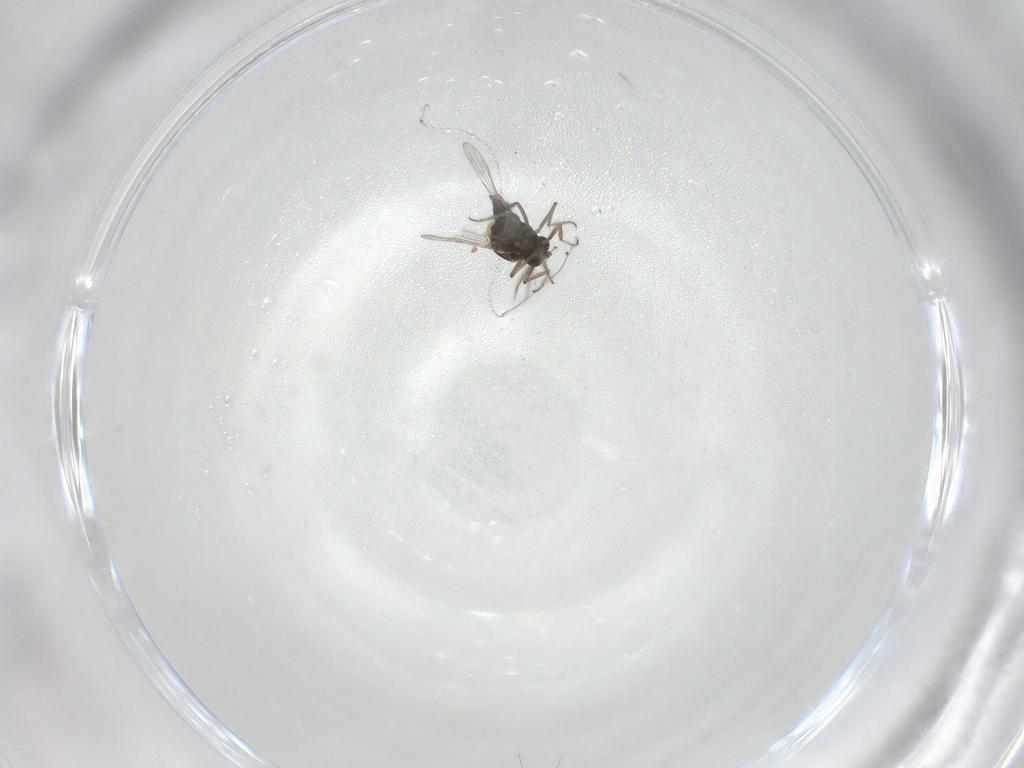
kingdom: Animalia
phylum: Arthropoda
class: Insecta
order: Diptera
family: Ceratopogonidae
